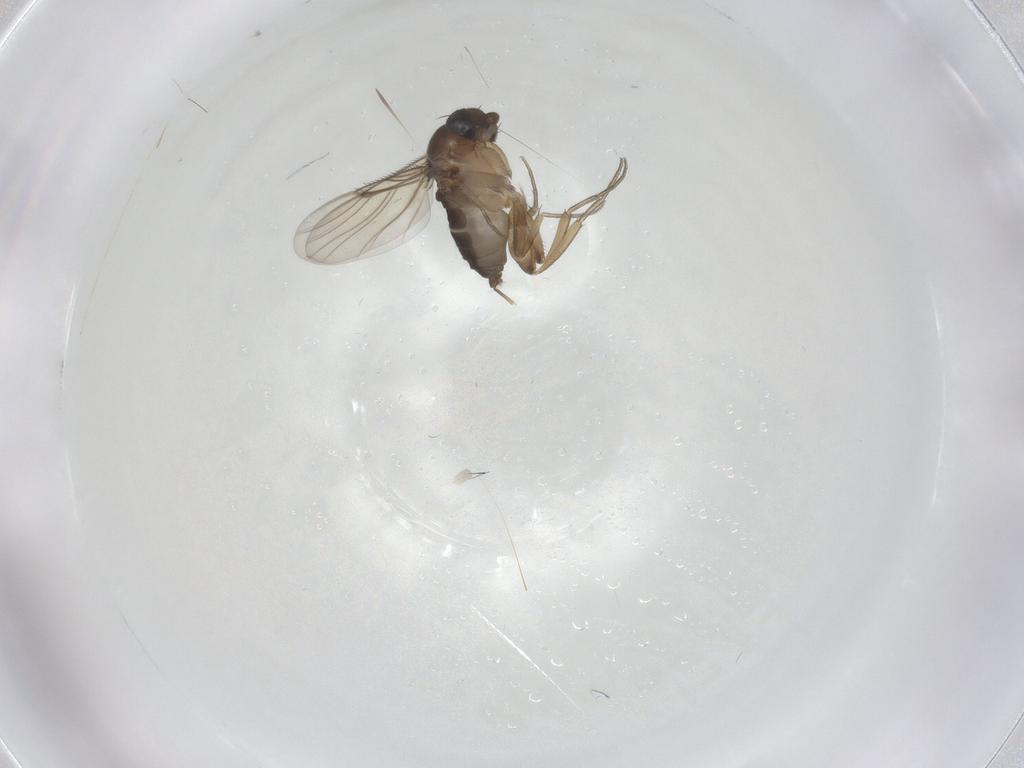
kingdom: Animalia
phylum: Arthropoda
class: Insecta
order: Diptera
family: Chironomidae
